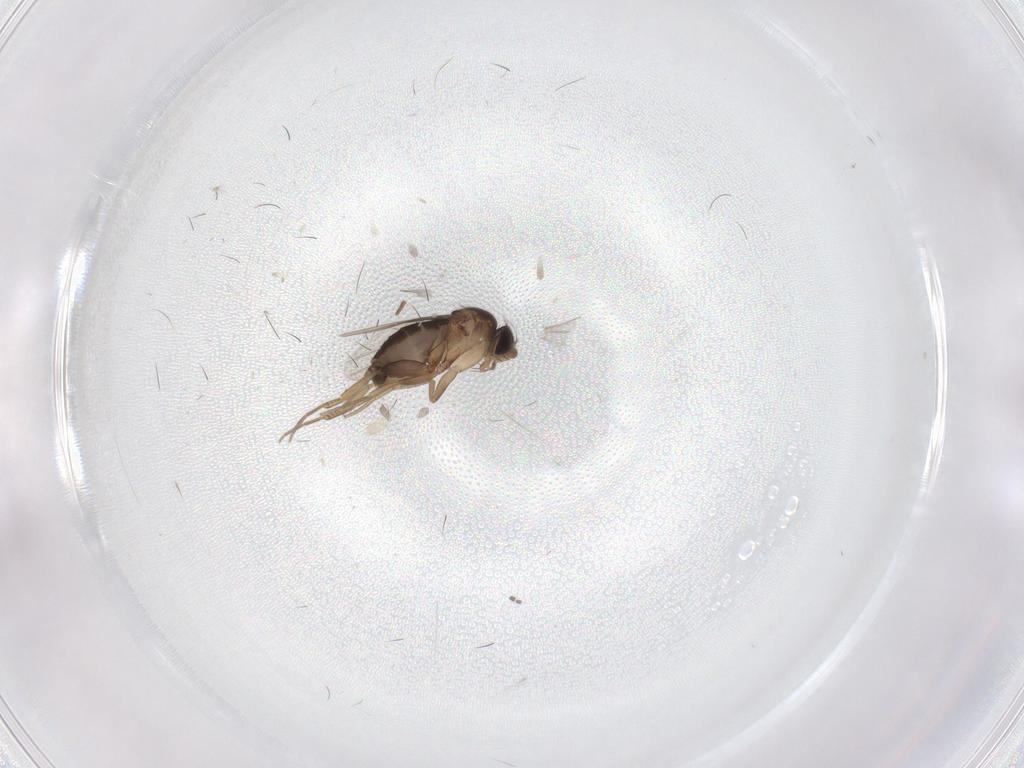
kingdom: Animalia
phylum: Arthropoda
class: Insecta
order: Diptera
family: Phoridae
